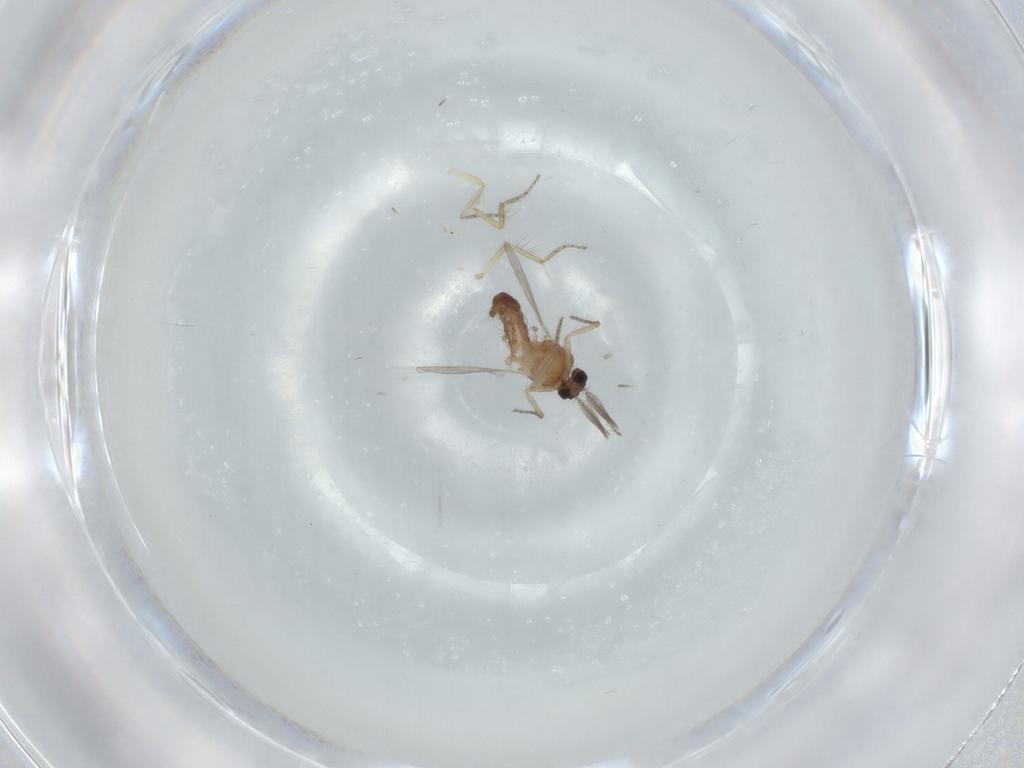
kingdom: Animalia
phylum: Arthropoda
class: Insecta
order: Diptera
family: Ceratopogonidae
